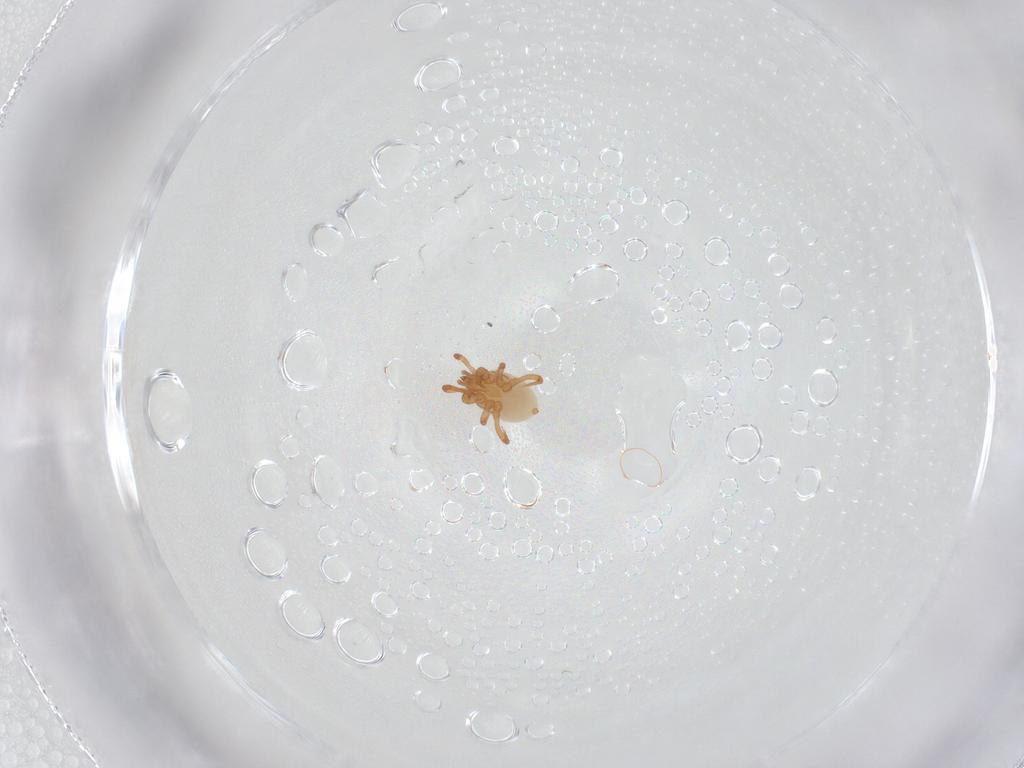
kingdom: Animalia
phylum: Arthropoda
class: Arachnida
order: Mesostigmata
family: Parasitidae
